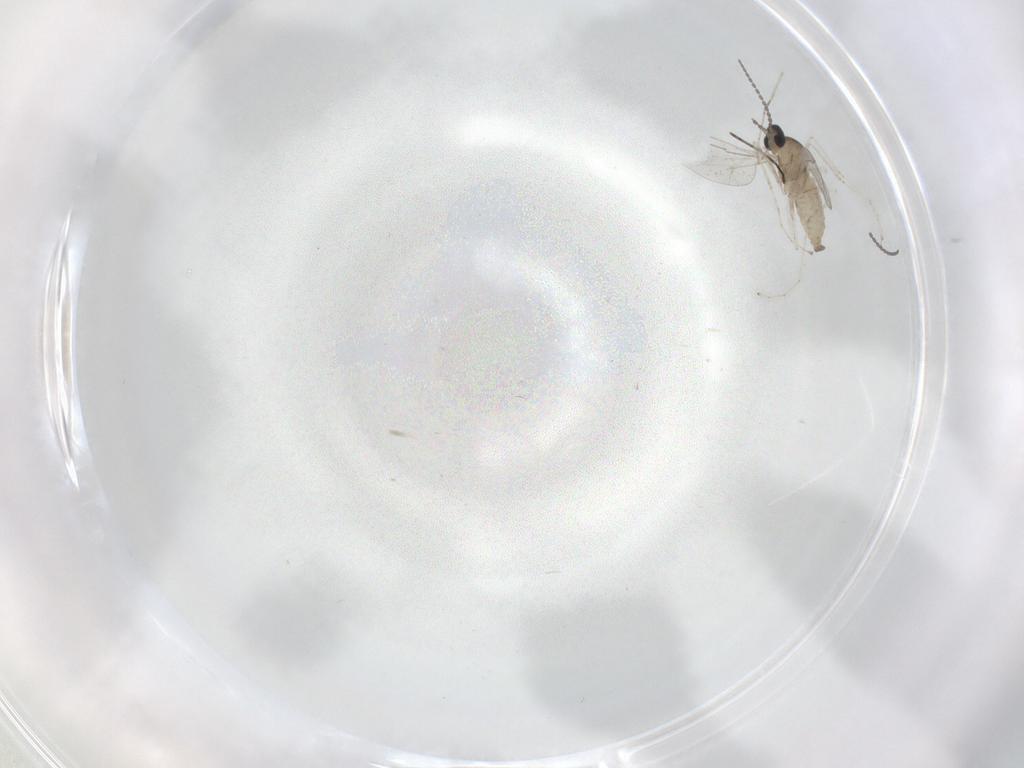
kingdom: Animalia
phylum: Arthropoda
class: Insecta
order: Diptera
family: Cecidomyiidae
